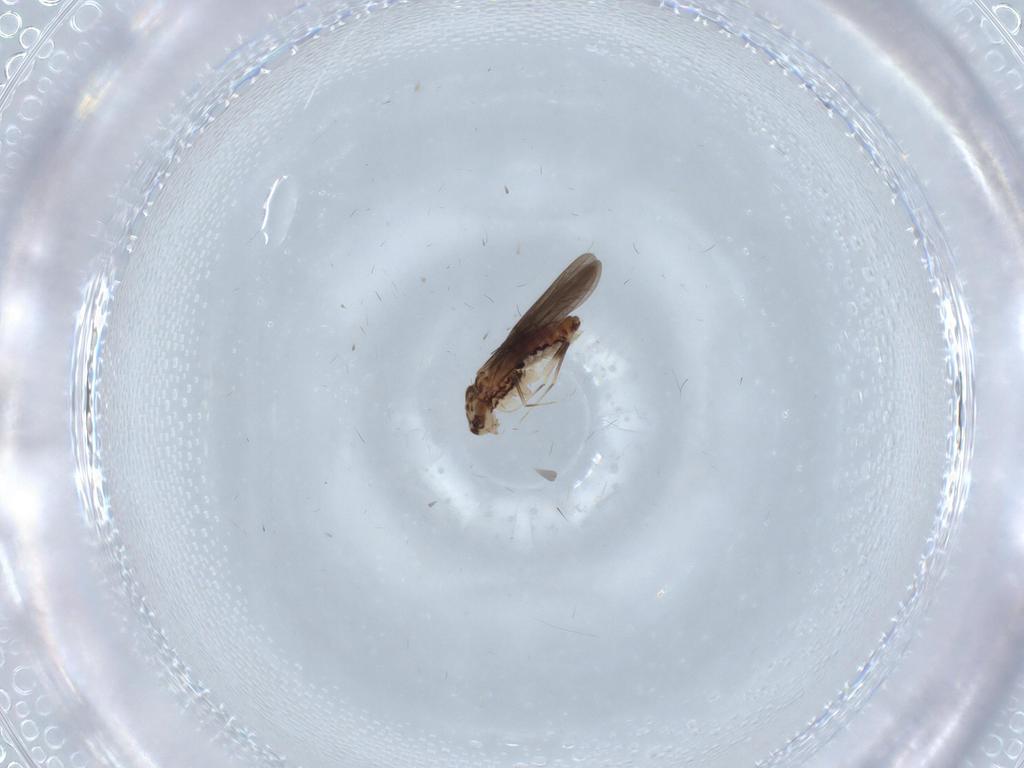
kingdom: Animalia
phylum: Arthropoda
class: Insecta
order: Psocodea
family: Lepidopsocidae
